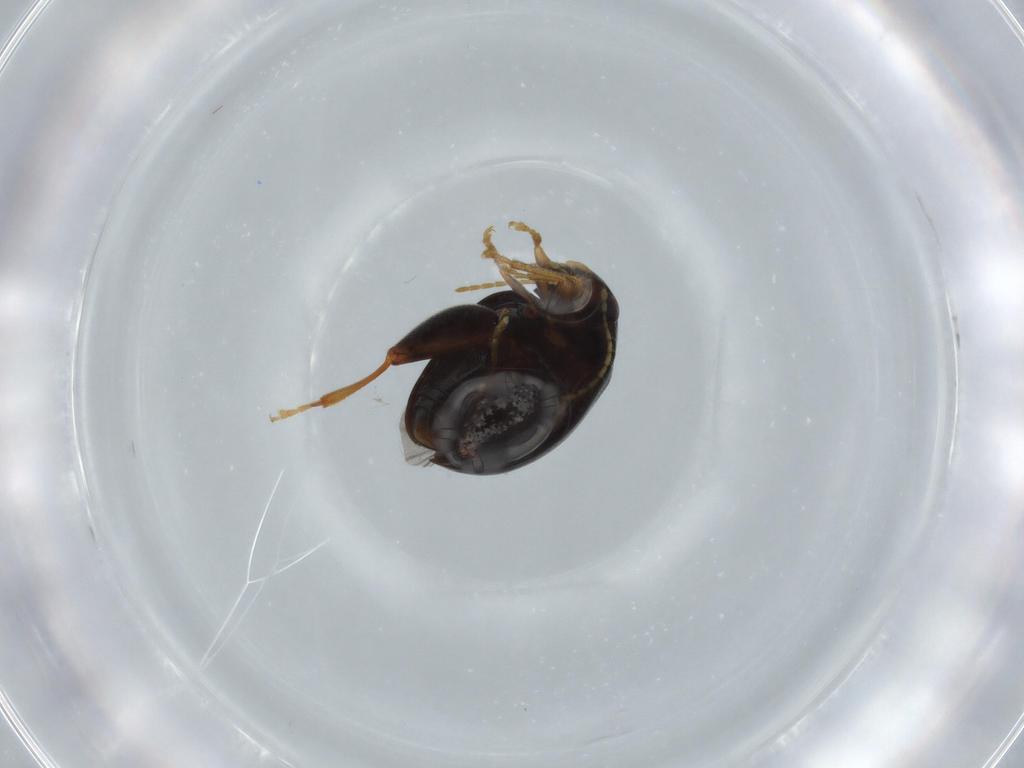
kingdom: Animalia
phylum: Arthropoda
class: Insecta
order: Coleoptera
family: Chrysomelidae
